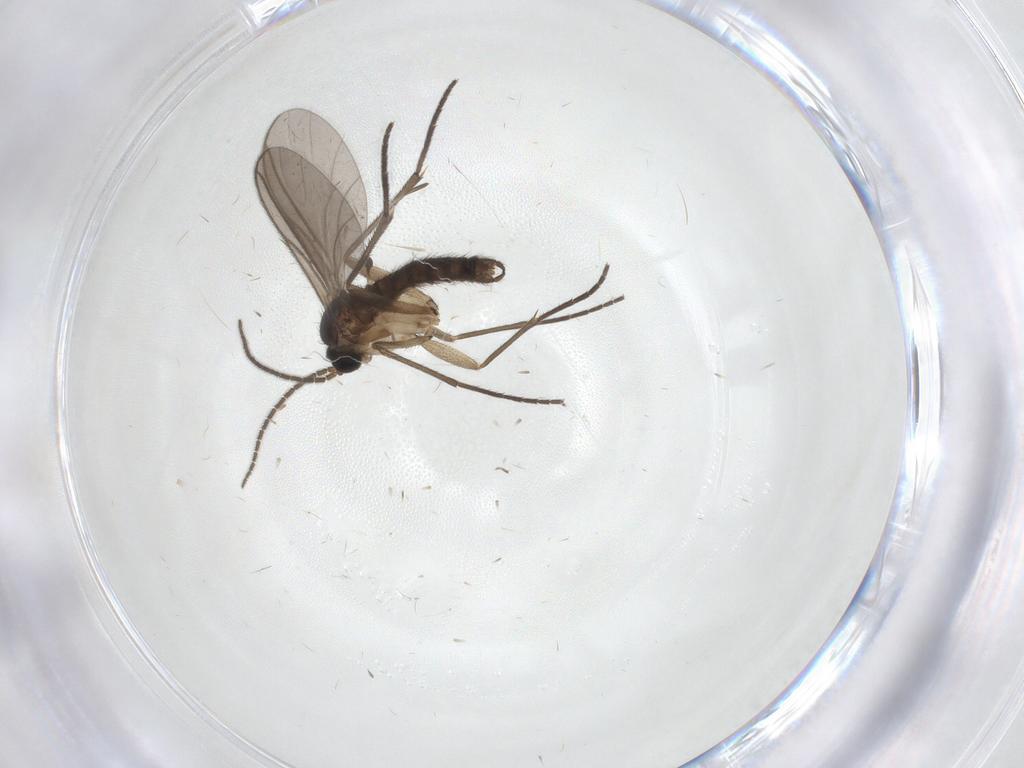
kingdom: Animalia
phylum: Arthropoda
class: Insecta
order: Diptera
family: Sciaridae
